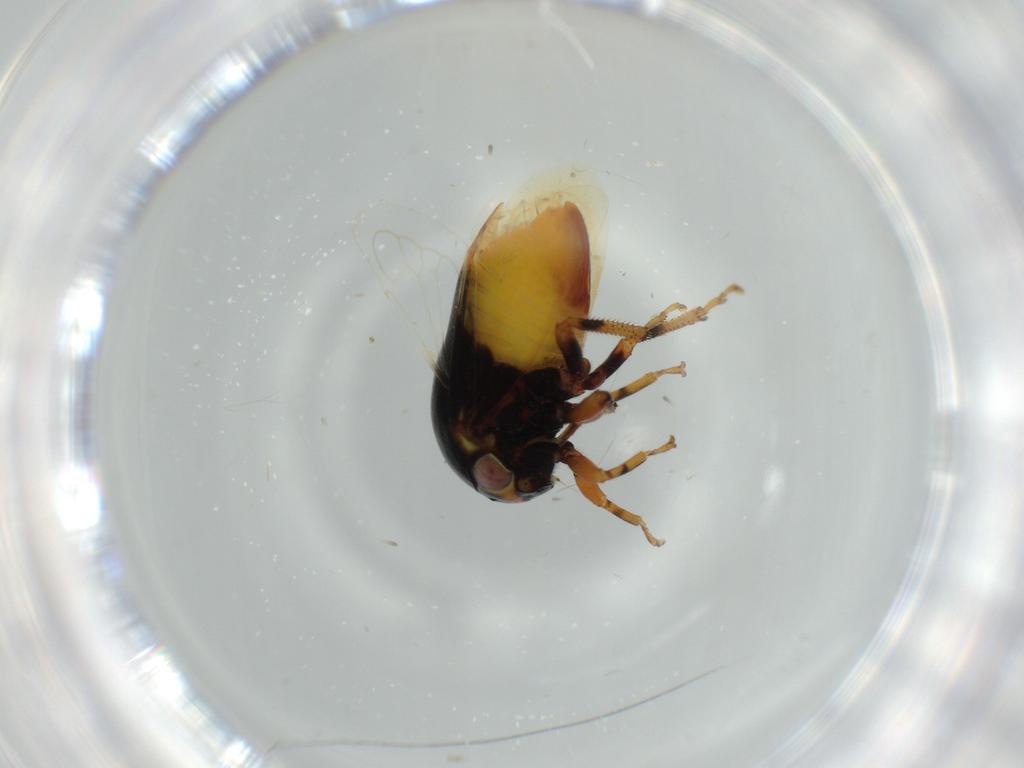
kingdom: Animalia
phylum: Arthropoda
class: Insecta
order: Hemiptera
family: Membracidae
